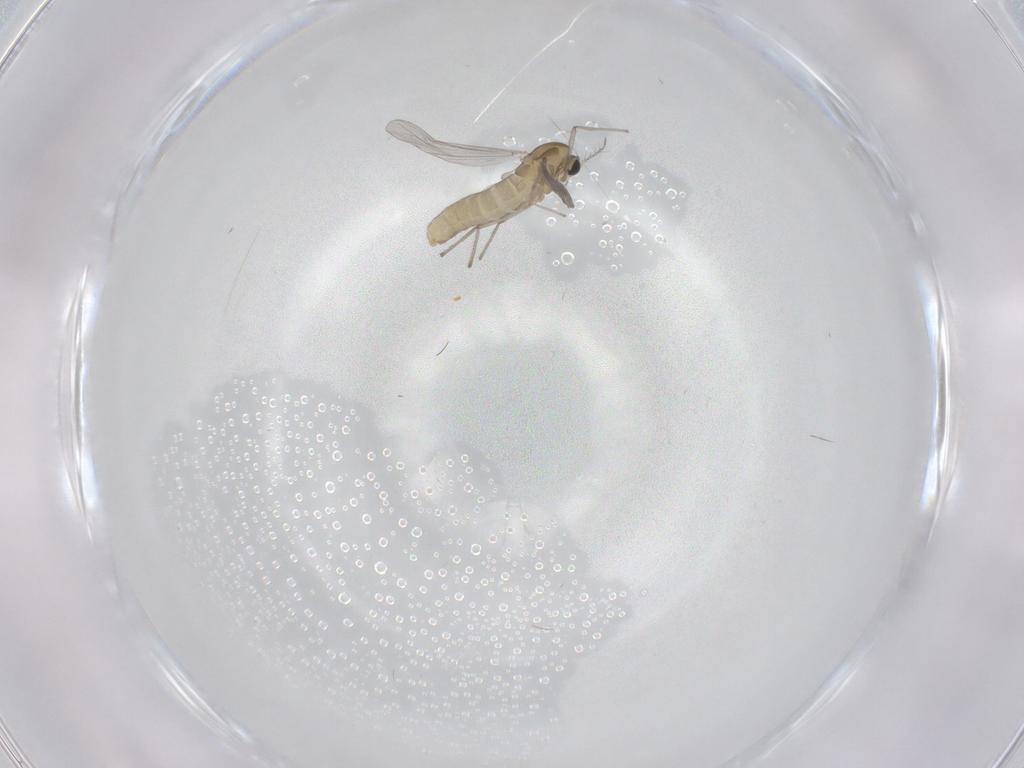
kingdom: Animalia
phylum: Arthropoda
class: Insecta
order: Diptera
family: Chironomidae
